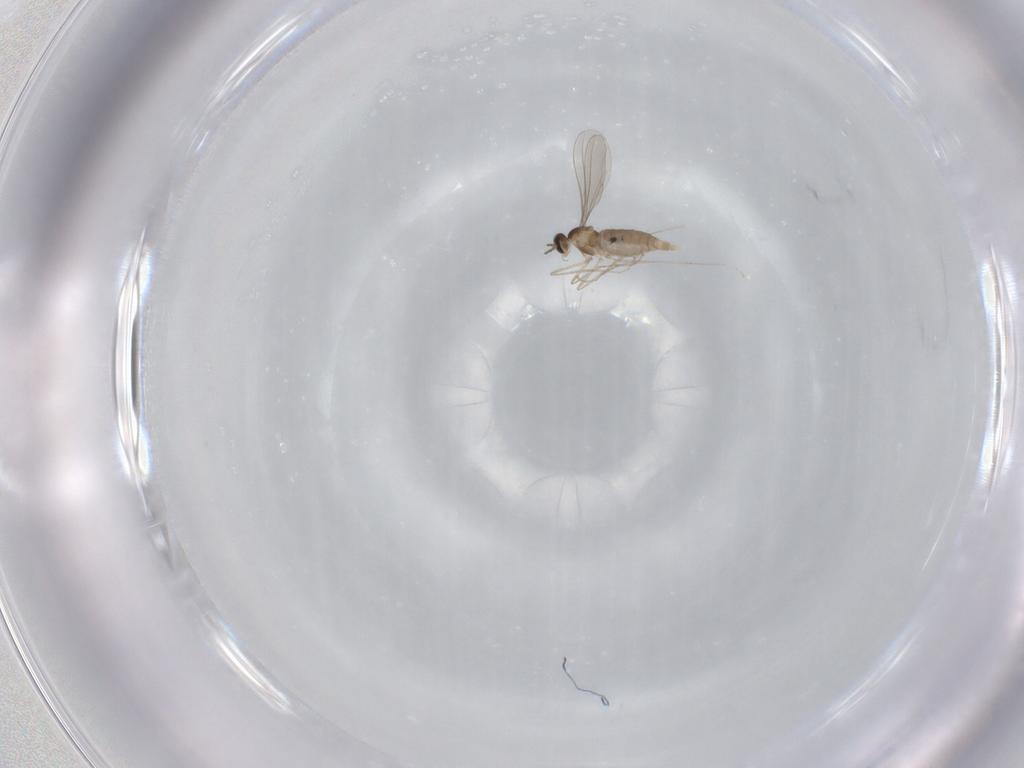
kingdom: Animalia
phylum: Arthropoda
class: Insecta
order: Diptera
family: Chironomidae
